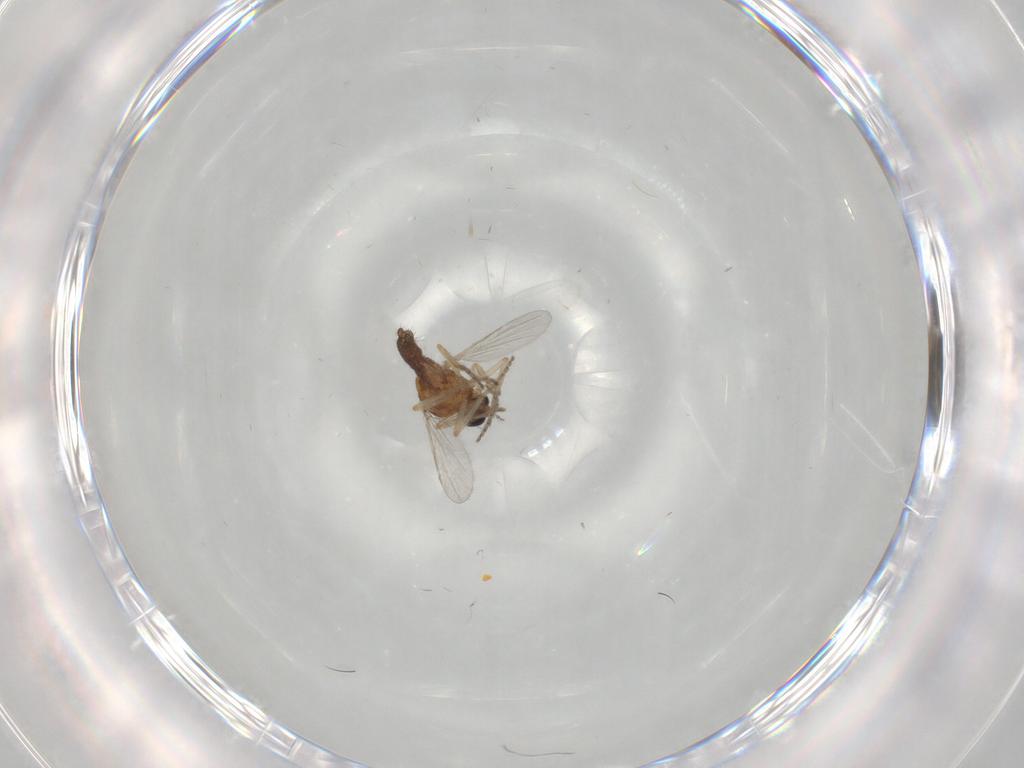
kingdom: Animalia
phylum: Arthropoda
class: Insecta
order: Diptera
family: Ceratopogonidae
